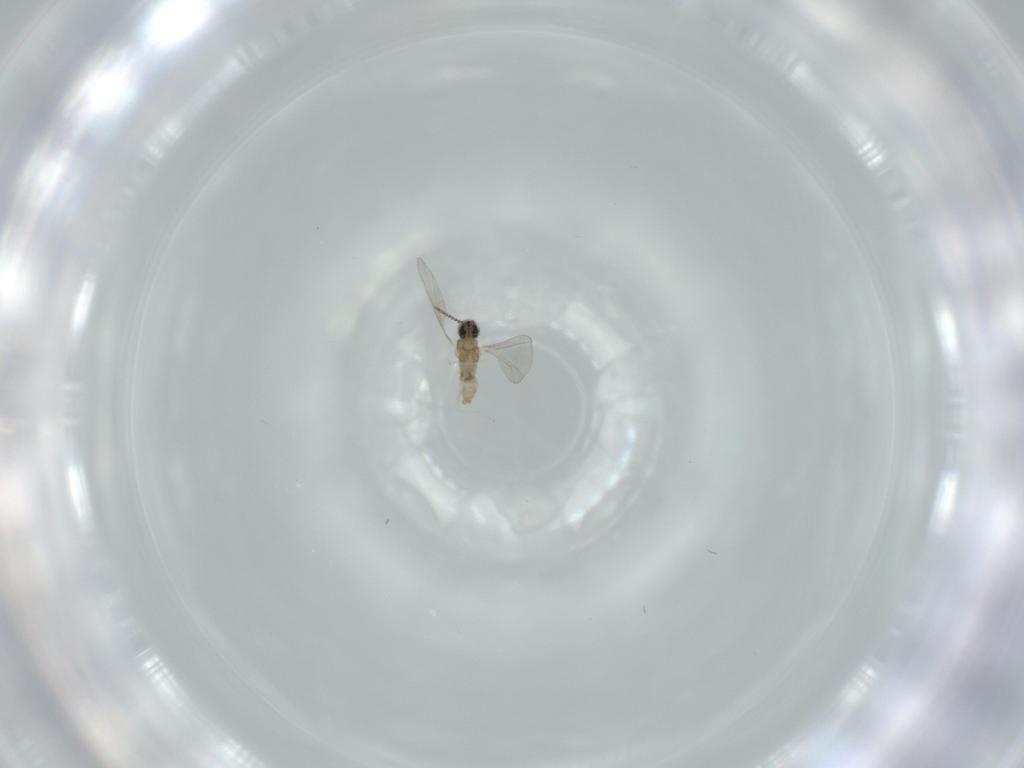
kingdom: Animalia
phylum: Arthropoda
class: Insecta
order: Diptera
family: Cecidomyiidae
